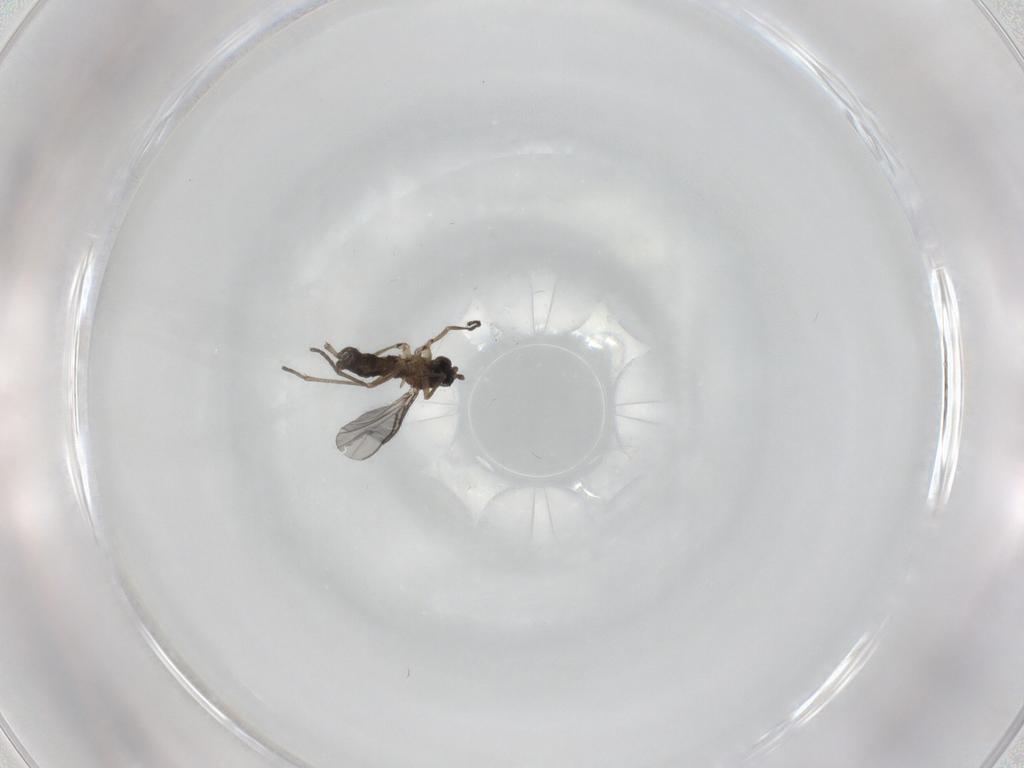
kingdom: Animalia
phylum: Arthropoda
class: Insecta
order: Diptera
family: Sciaridae
